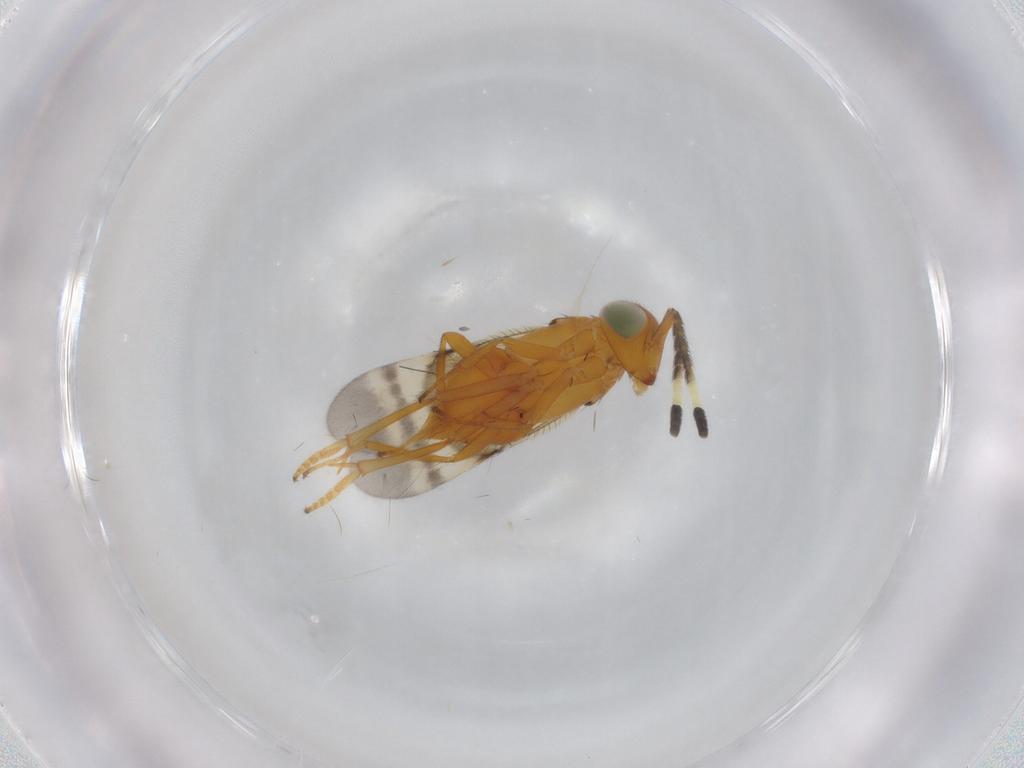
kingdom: Animalia
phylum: Arthropoda
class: Insecta
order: Hymenoptera
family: Encyrtidae
